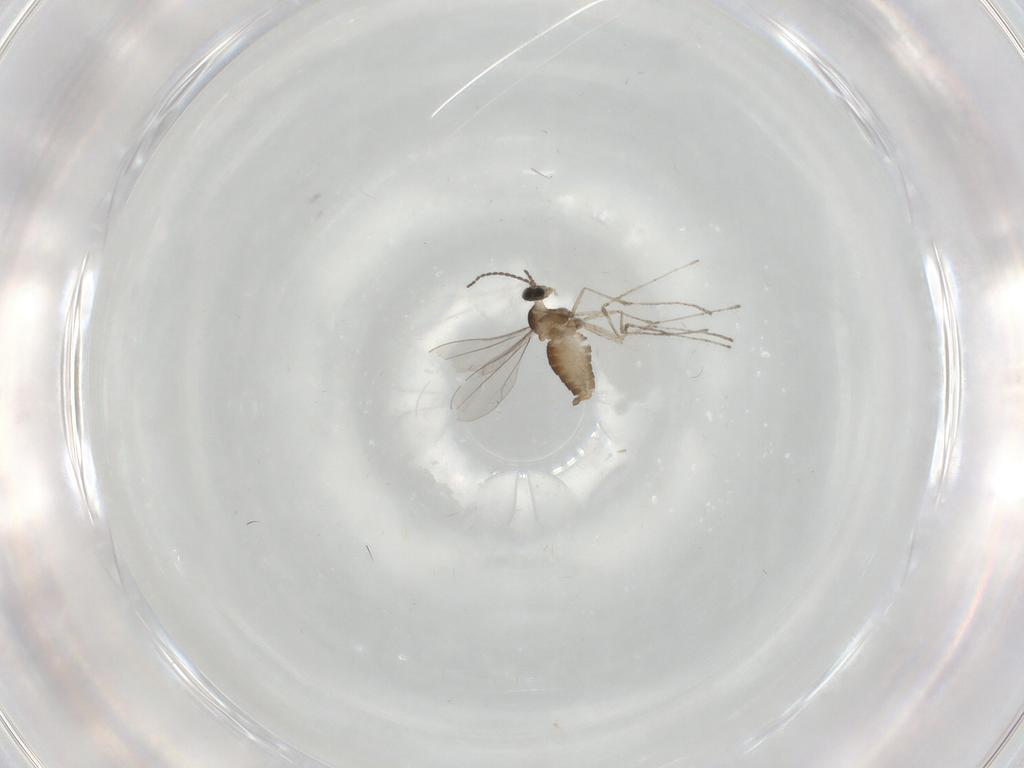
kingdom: Animalia
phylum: Arthropoda
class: Insecta
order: Diptera
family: Cecidomyiidae
